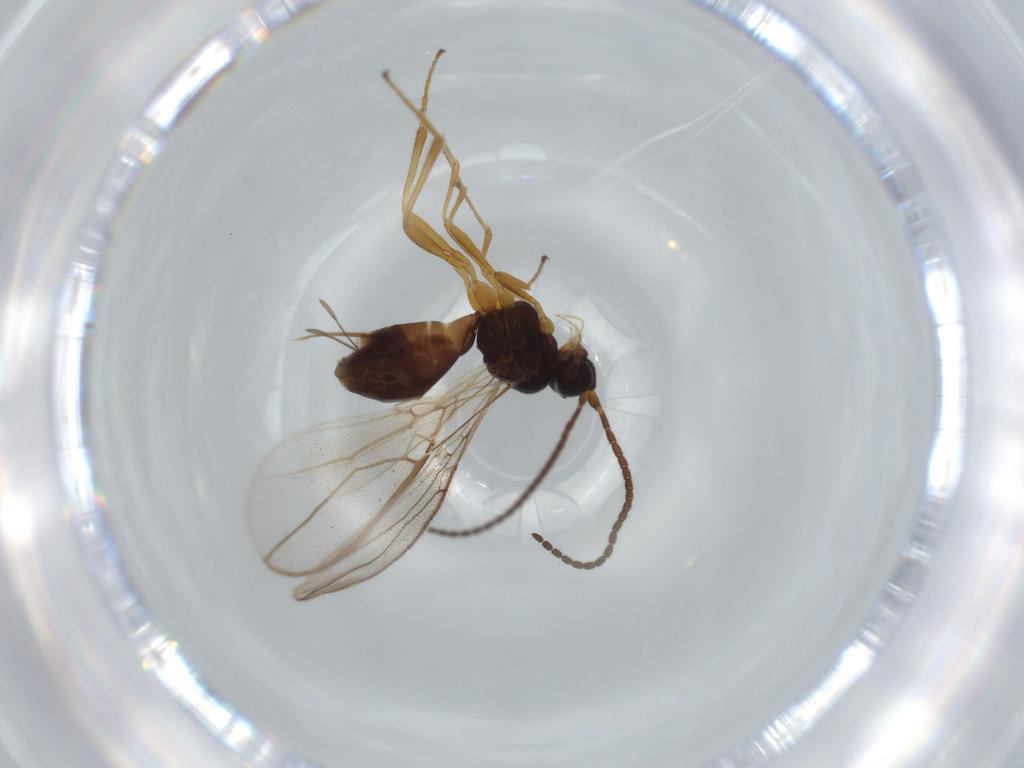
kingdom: Animalia
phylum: Arthropoda
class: Insecta
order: Hymenoptera
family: Braconidae
